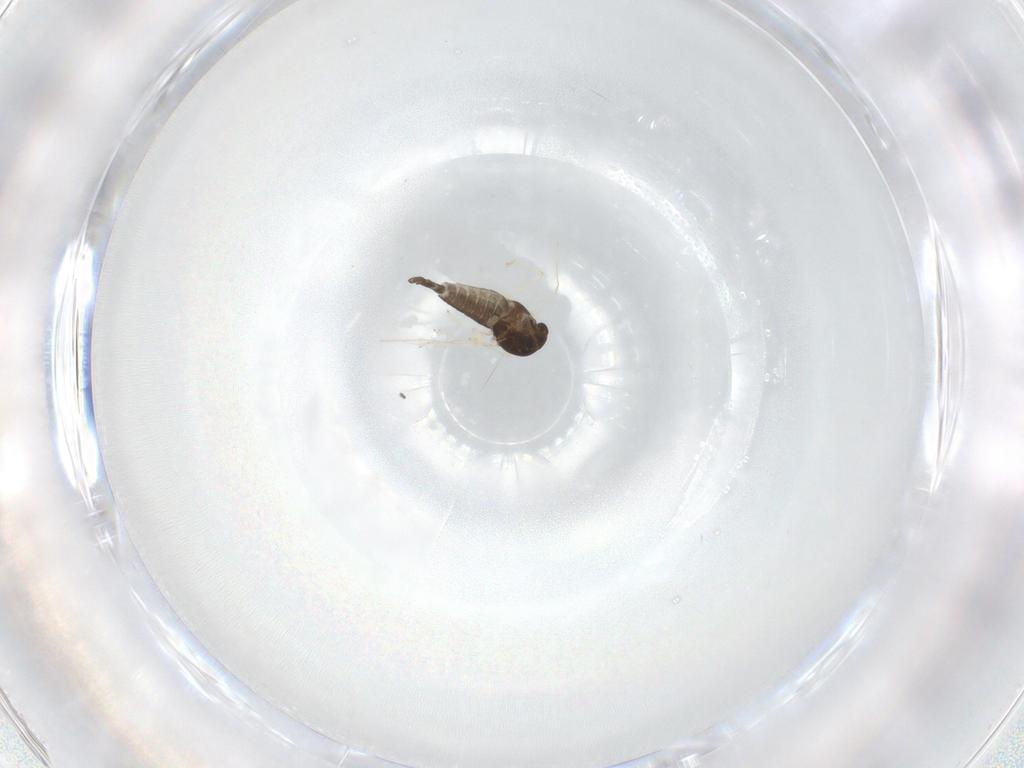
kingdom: Animalia
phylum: Arthropoda
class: Insecta
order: Diptera
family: Chironomidae
